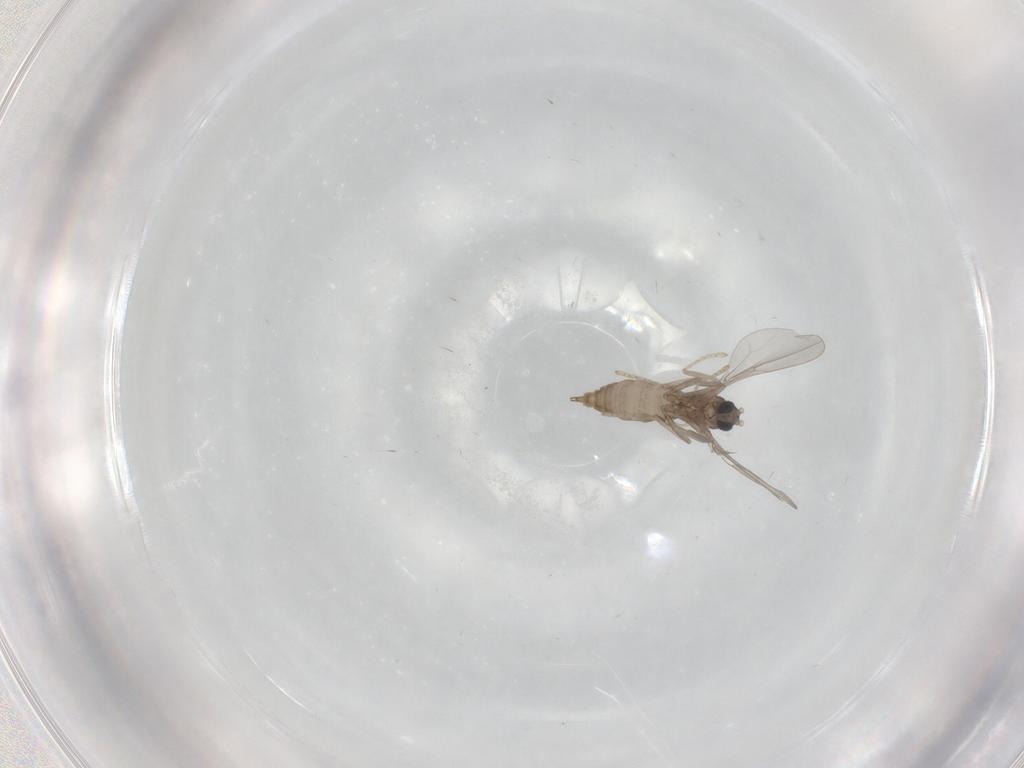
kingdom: Animalia
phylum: Arthropoda
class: Insecta
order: Diptera
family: Cecidomyiidae
